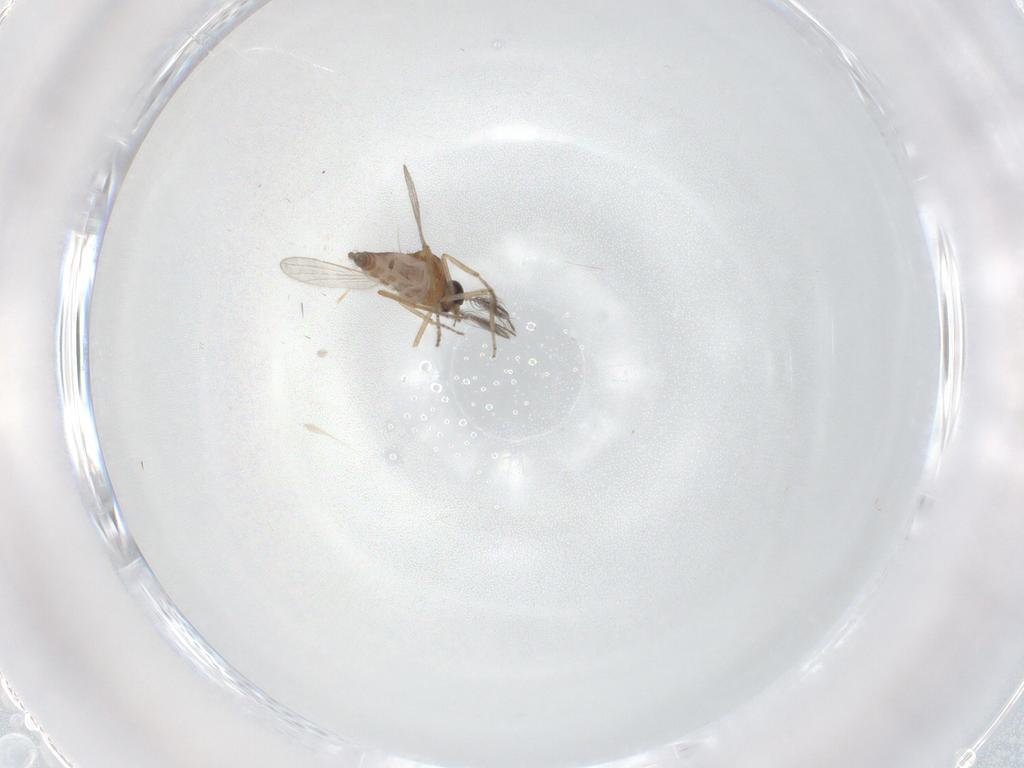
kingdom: Animalia
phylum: Arthropoda
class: Insecta
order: Diptera
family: Ceratopogonidae
